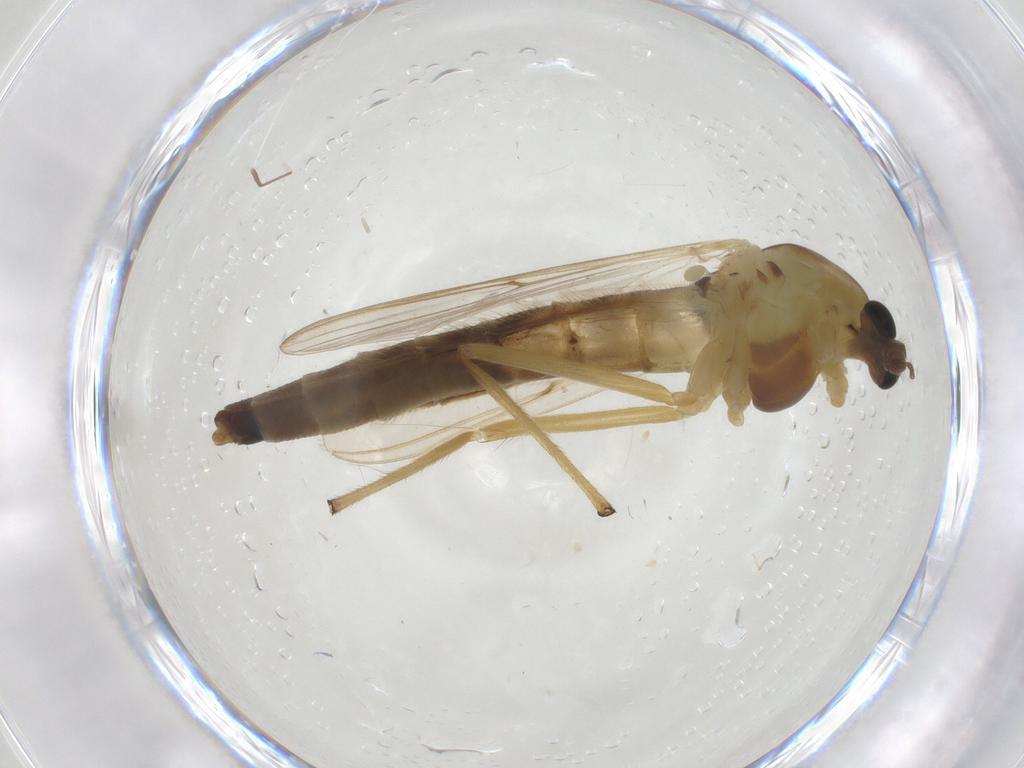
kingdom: Animalia
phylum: Arthropoda
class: Insecta
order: Diptera
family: Chironomidae
